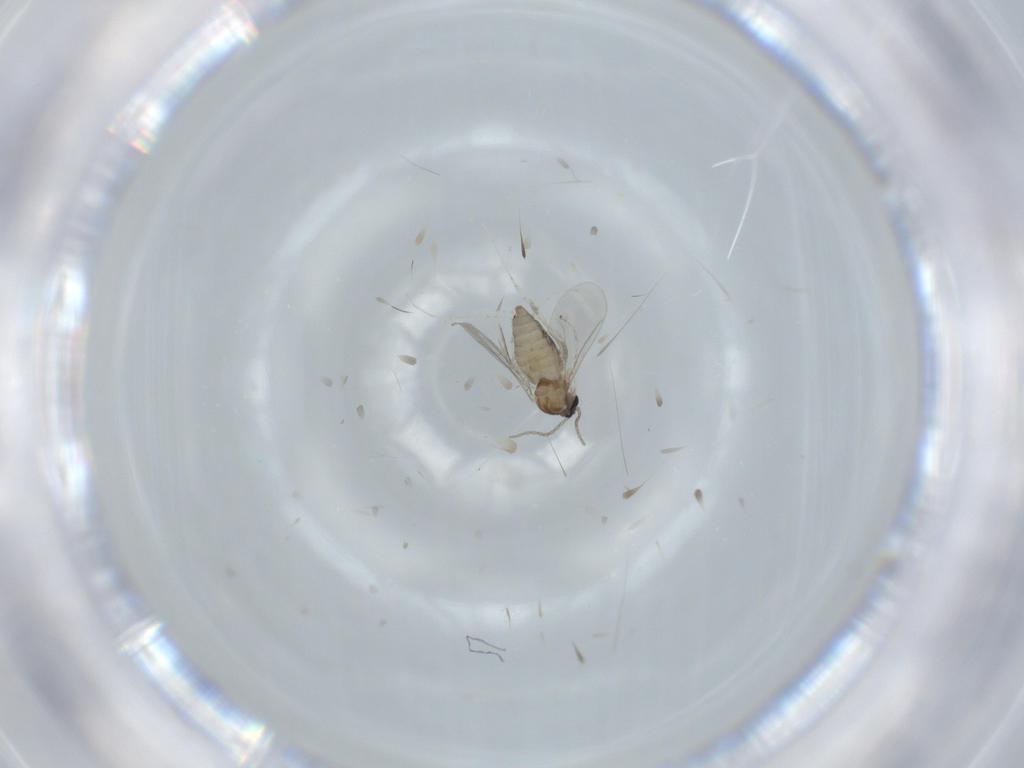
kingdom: Animalia
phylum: Arthropoda
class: Insecta
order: Diptera
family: Cecidomyiidae
